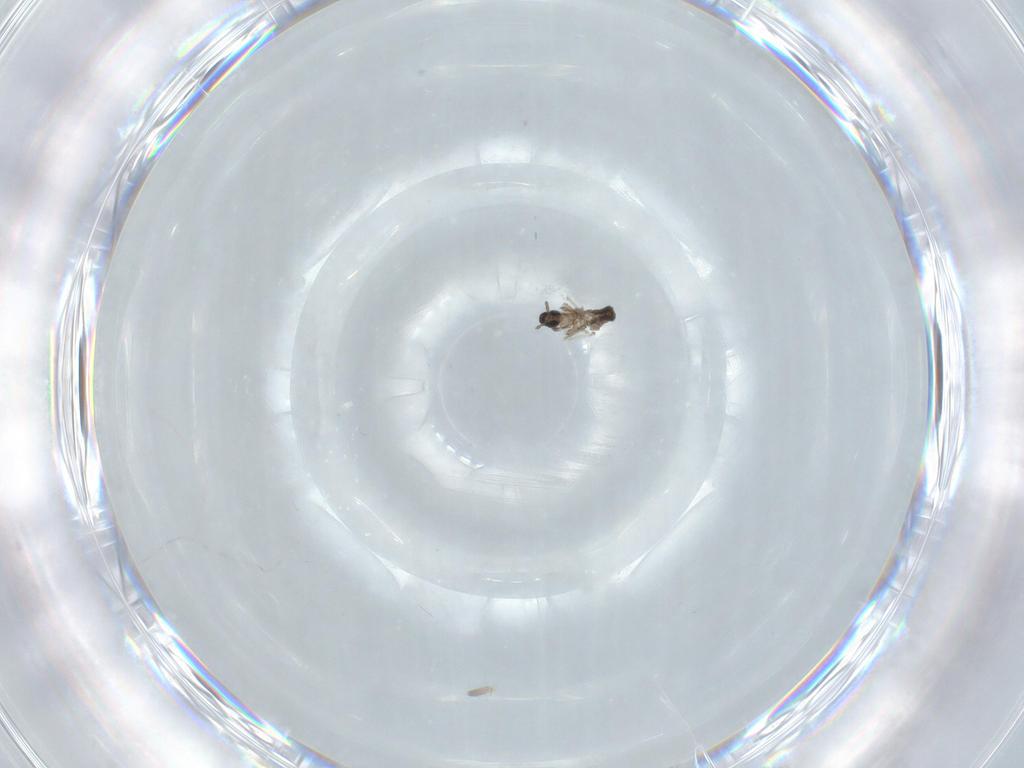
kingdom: Animalia
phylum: Arthropoda
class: Insecta
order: Diptera
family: Cecidomyiidae
